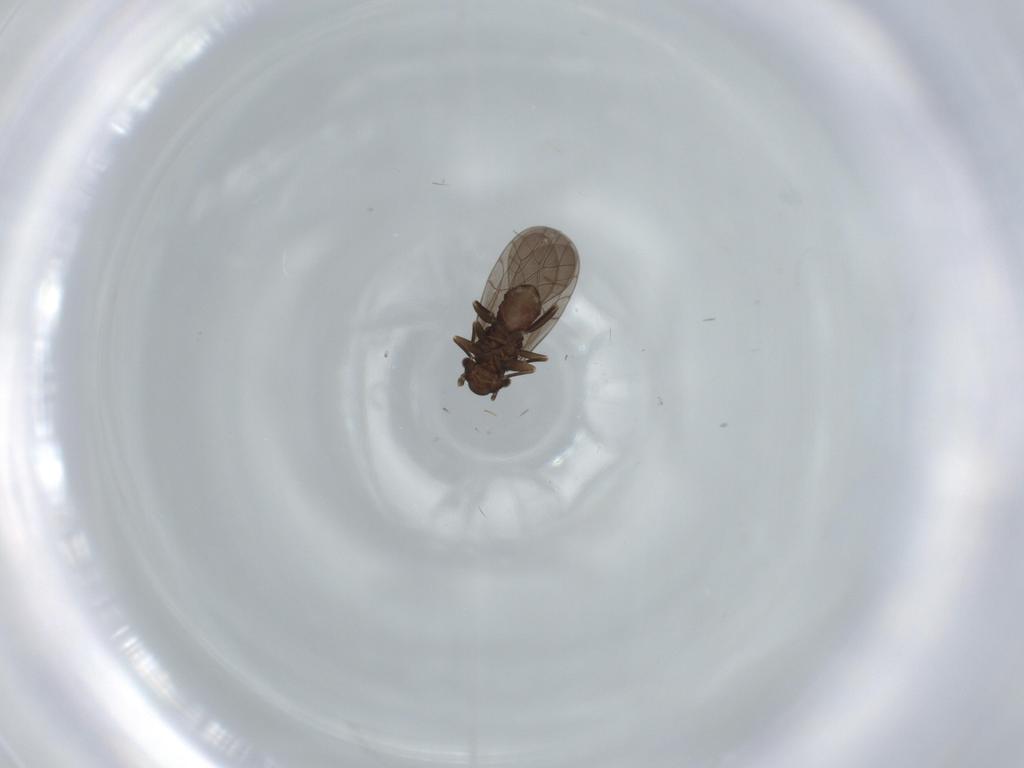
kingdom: Animalia
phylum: Arthropoda
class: Insecta
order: Psocodea
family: Lepidopsocidae
